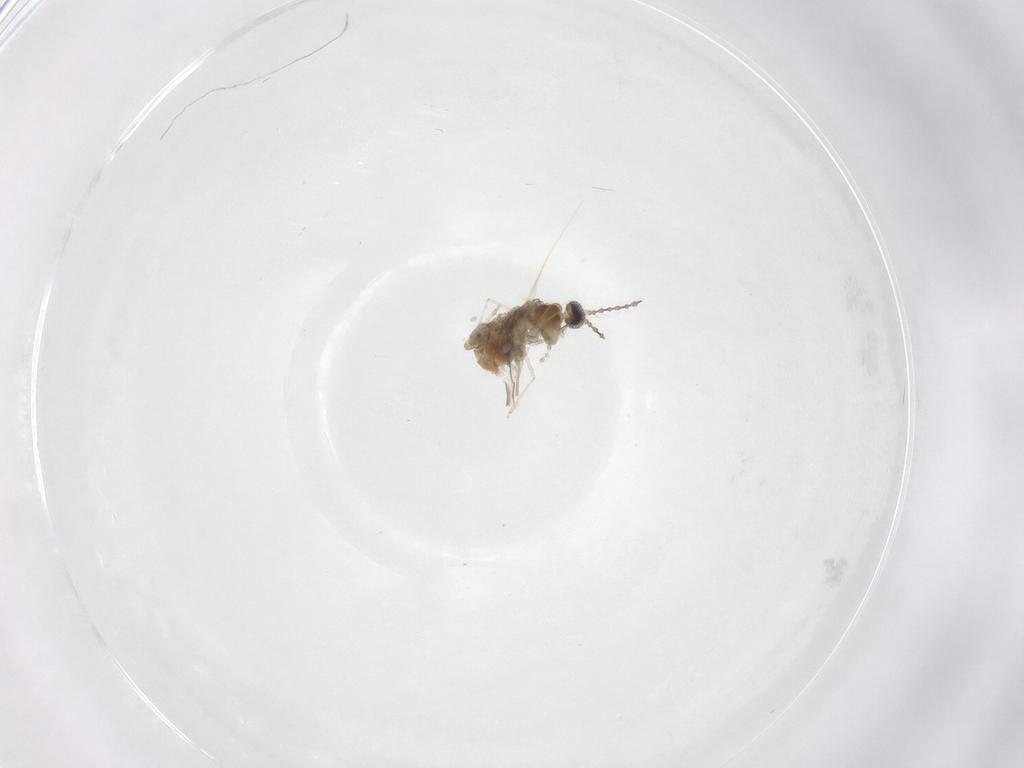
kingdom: Animalia
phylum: Arthropoda
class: Insecta
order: Diptera
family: Cecidomyiidae
